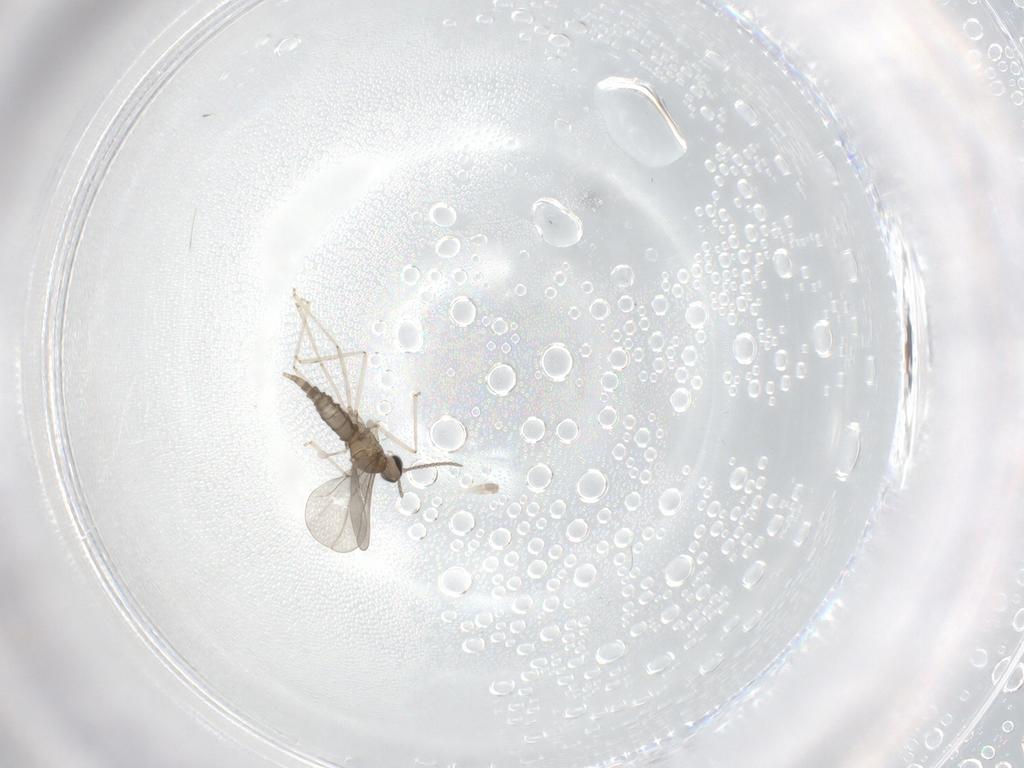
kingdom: Animalia
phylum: Arthropoda
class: Insecta
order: Diptera
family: Cecidomyiidae
